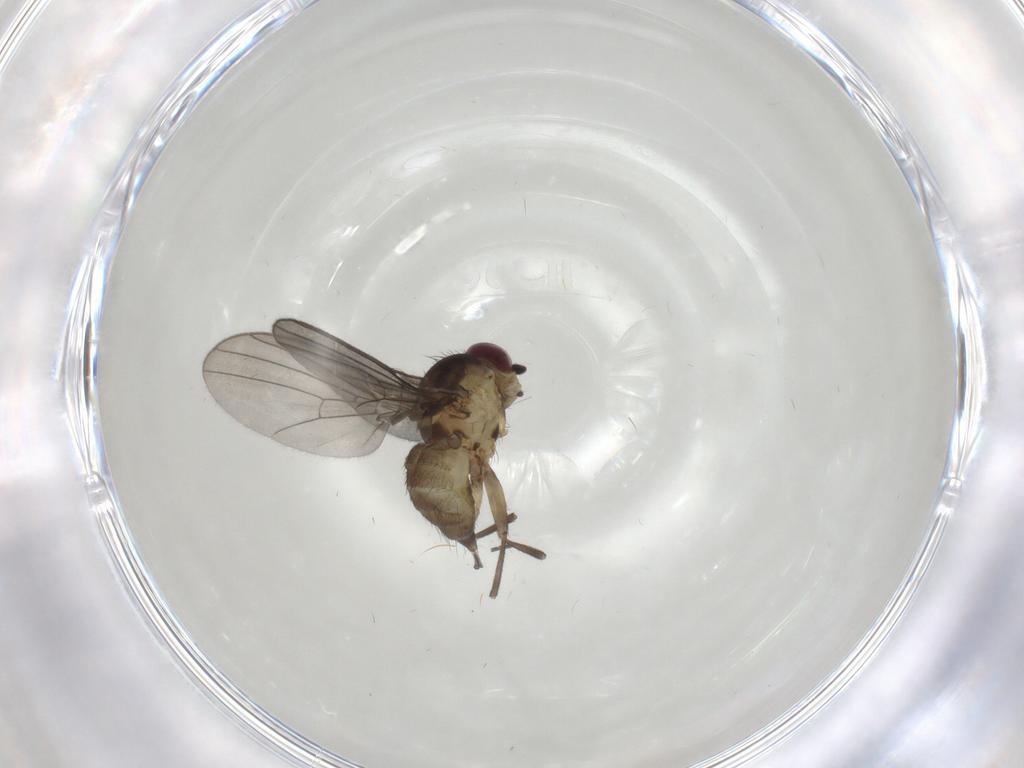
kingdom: Animalia
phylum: Arthropoda
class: Insecta
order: Diptera
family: Agromyzidae
